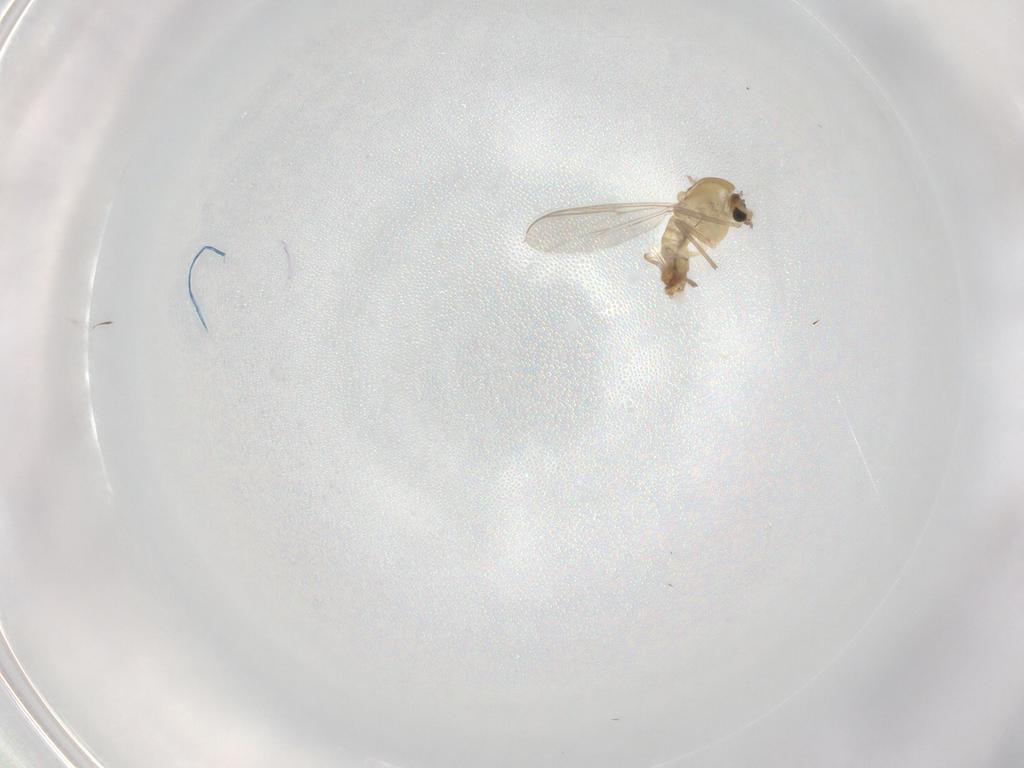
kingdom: Animalia
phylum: Arthropoda
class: Insecta
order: Diptera
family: Chironomidae
